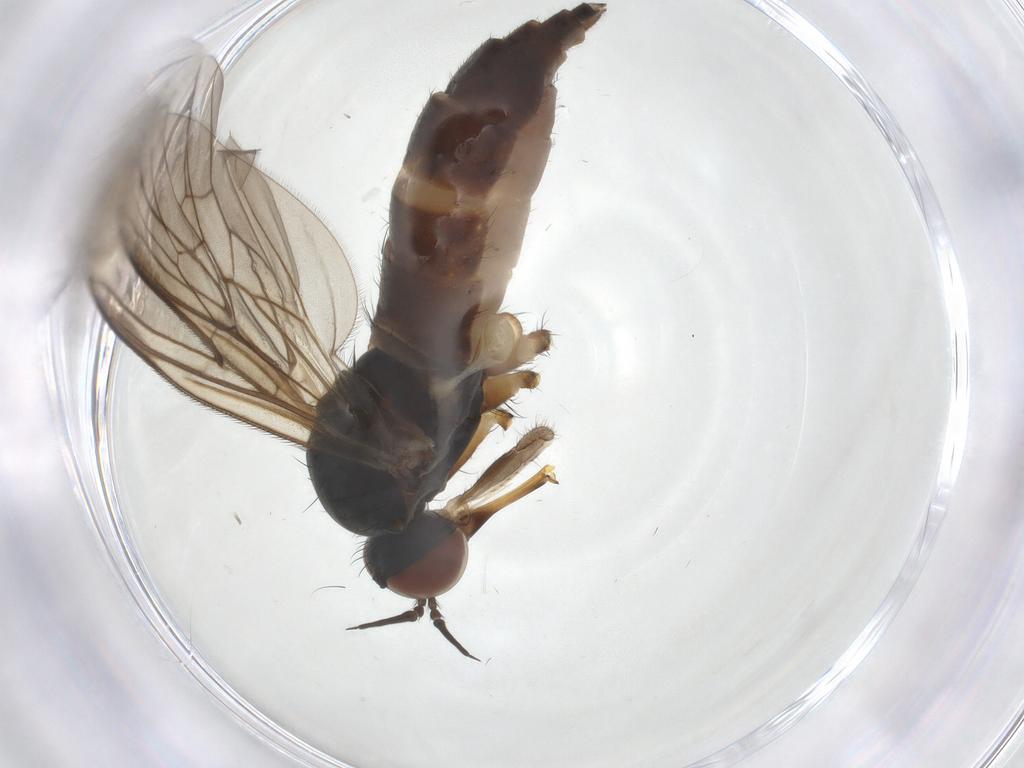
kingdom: Animalia
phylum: Arthropoda
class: Insecta
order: Diptera
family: Sciaridae
